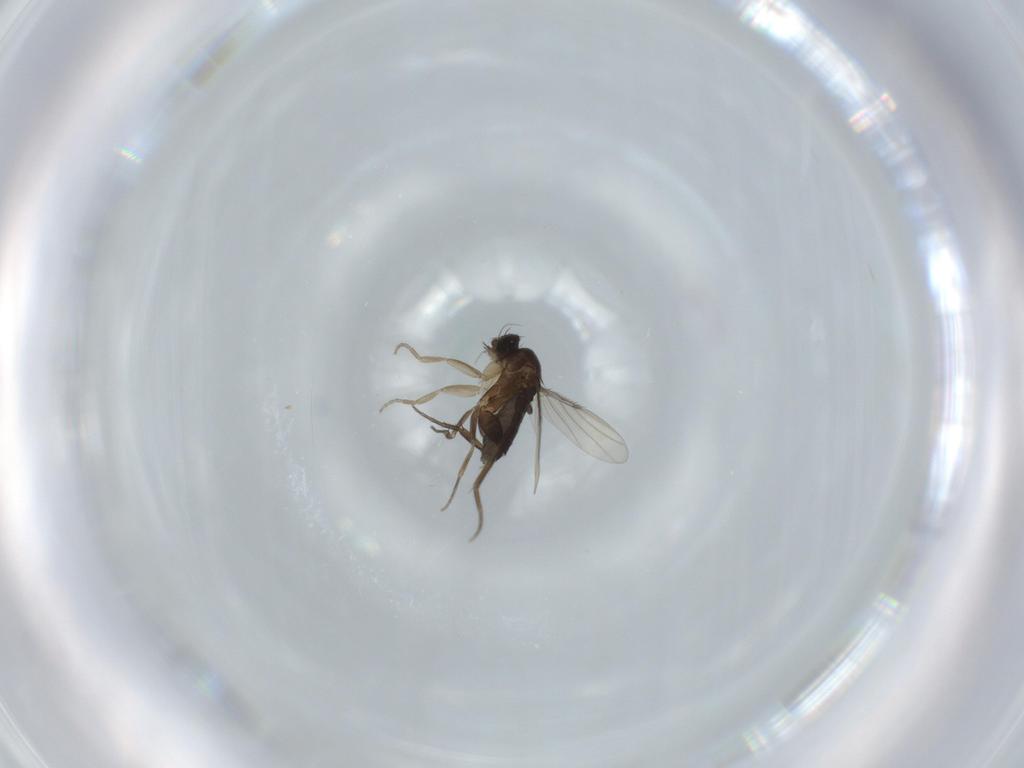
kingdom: Animalia
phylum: Arthropoda
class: Insecta
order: Diptera
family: Phoridae
